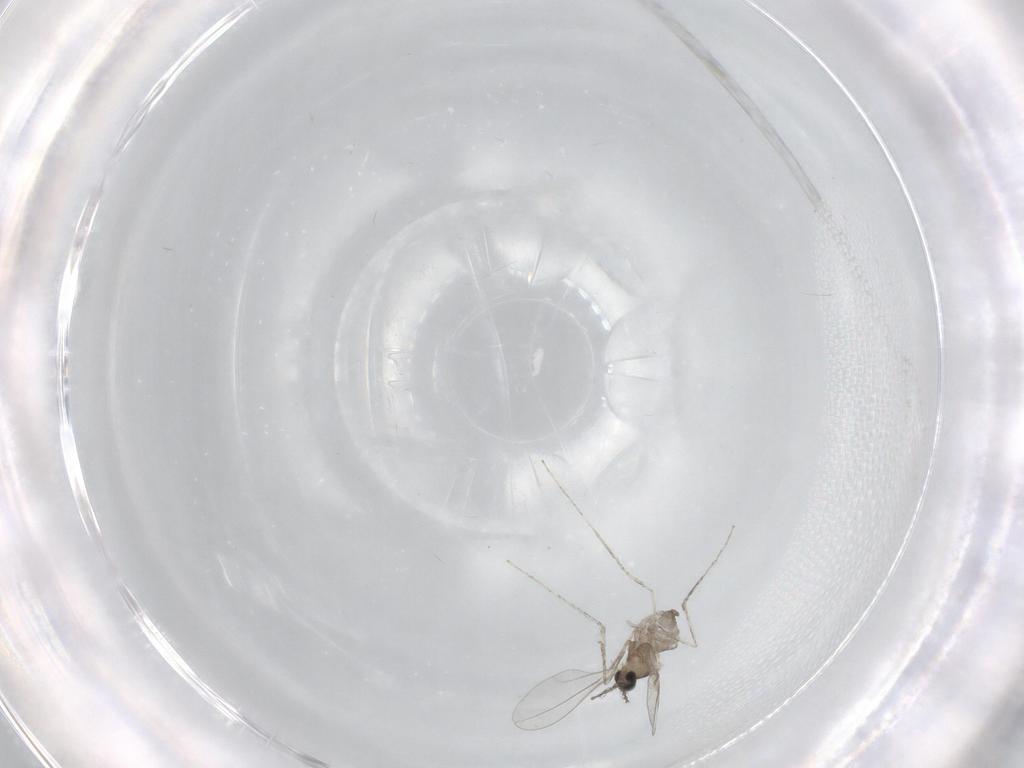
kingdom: Animalia
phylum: Arthropoda
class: Insecta
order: Diptera
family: Cecidomyiidae
